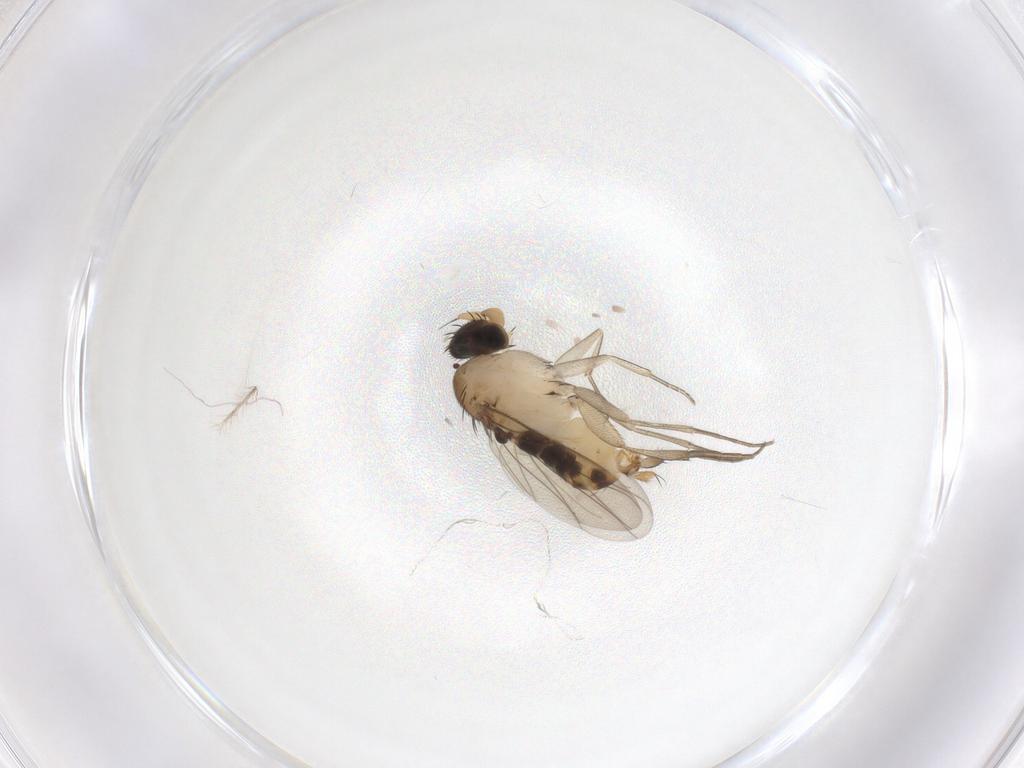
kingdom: Animalia
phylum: Arthropoda
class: Insecta
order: Diptera
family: Phoridae
